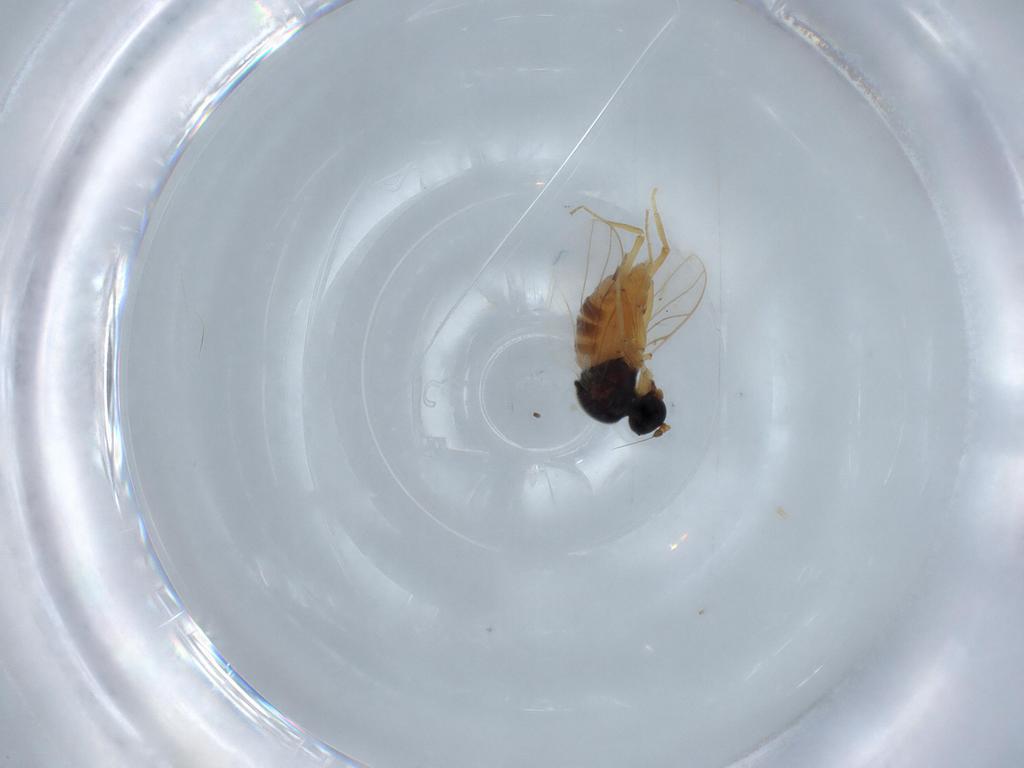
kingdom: Animalia
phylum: Arthropoda
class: Insecta
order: Diptera
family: Hybotidae
